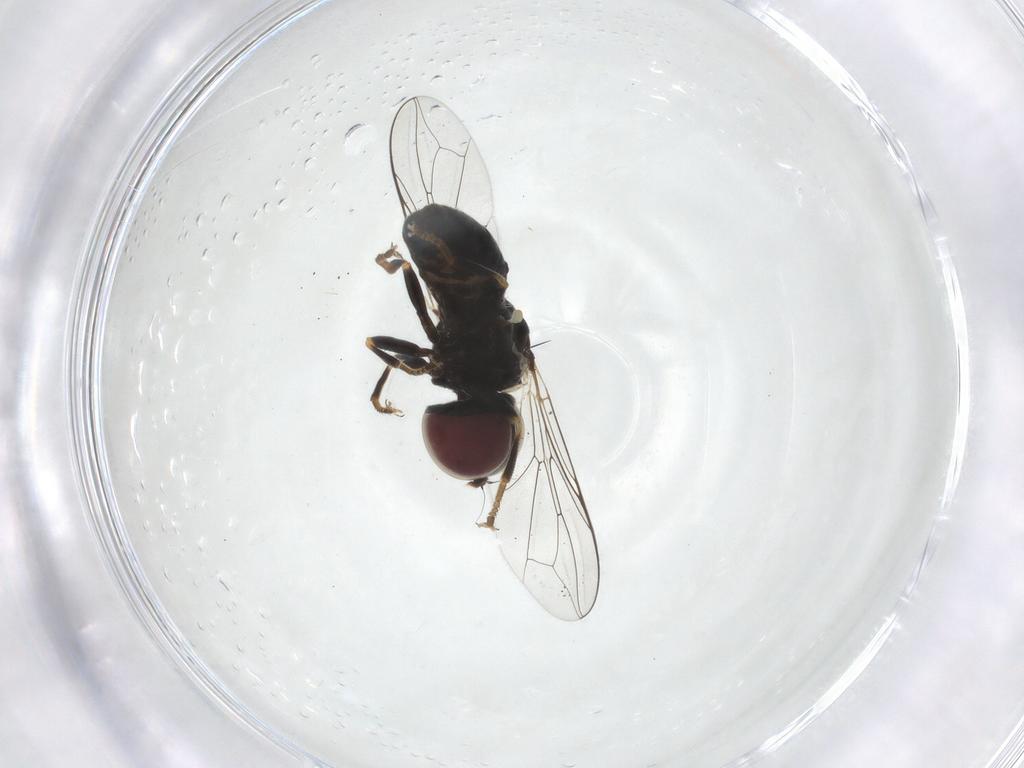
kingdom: Animalia
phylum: Arthropoda
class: Insecta
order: Diptera
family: Pipunculidae
